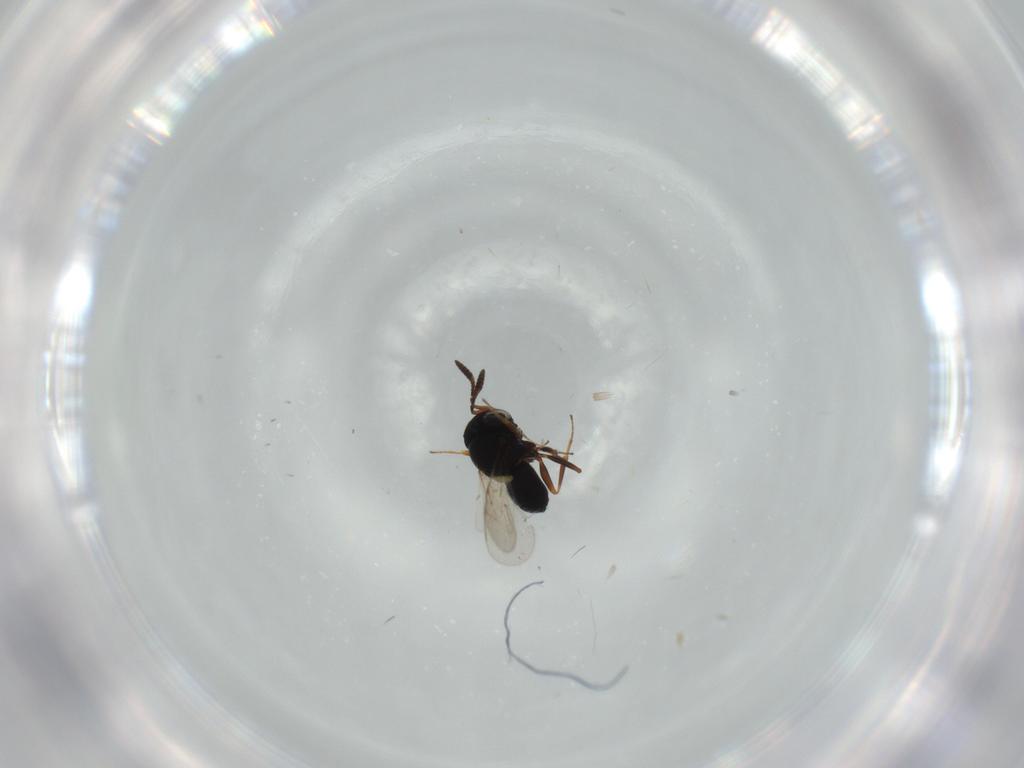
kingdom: Animalia
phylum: Arthropoda
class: Insecta
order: Hymenoptera
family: Scelionidae
